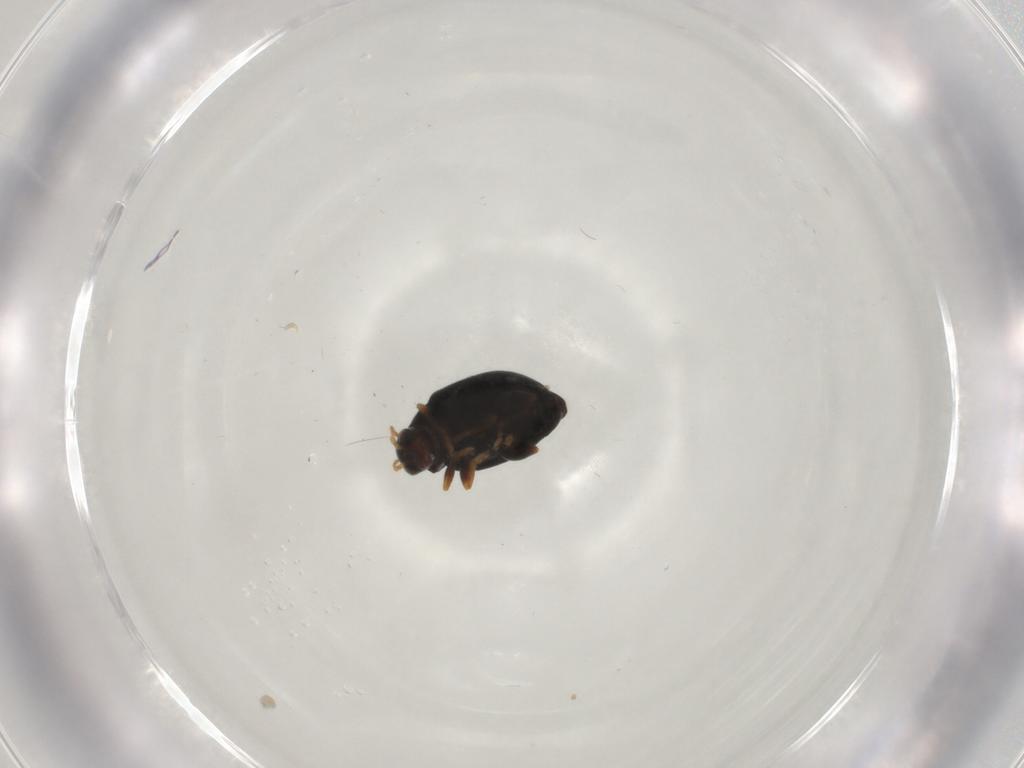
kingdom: Animalia
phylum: Arthropoda
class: Insecta
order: Coleoptera
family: Chrysomelidae
